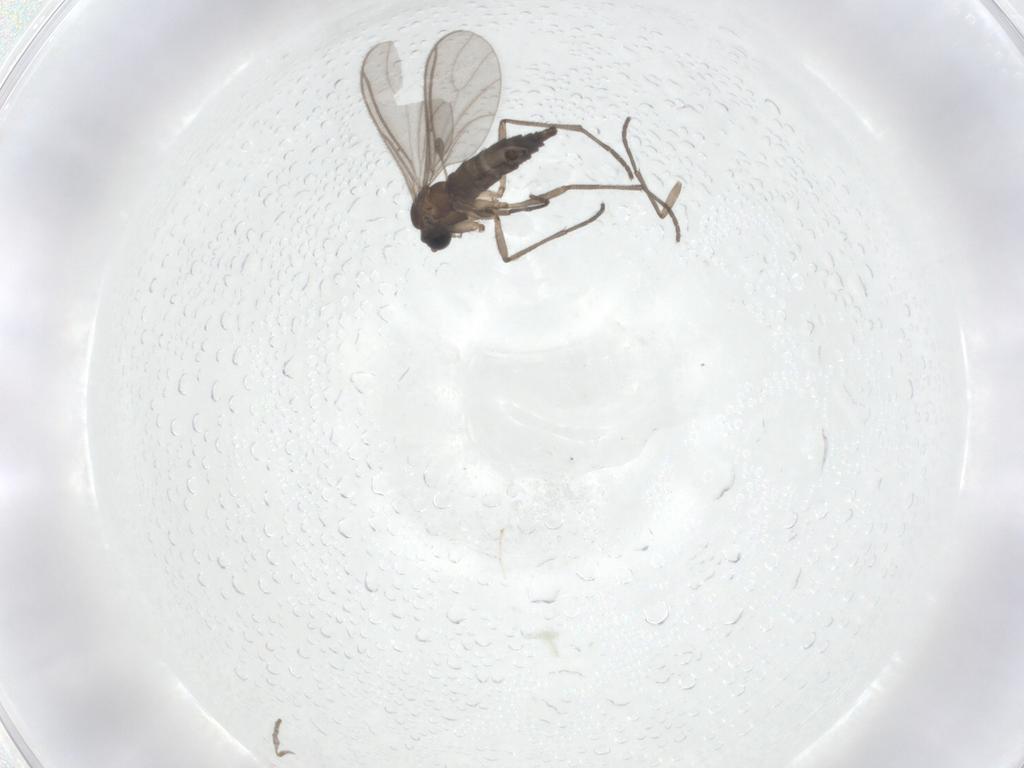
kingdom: Animalia
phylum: Arthropoda
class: Insecta
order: Diptera
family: Psychodidae
